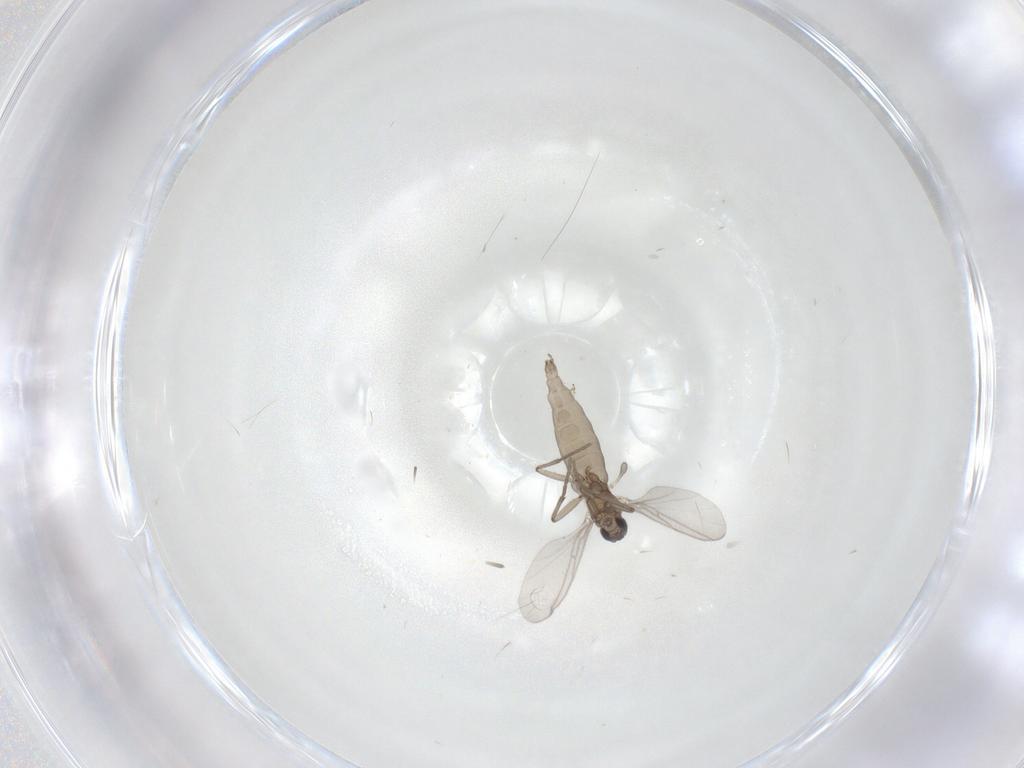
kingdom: Animalia
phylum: Arthropoda
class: Insecta
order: Diptera
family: Sciaridae
